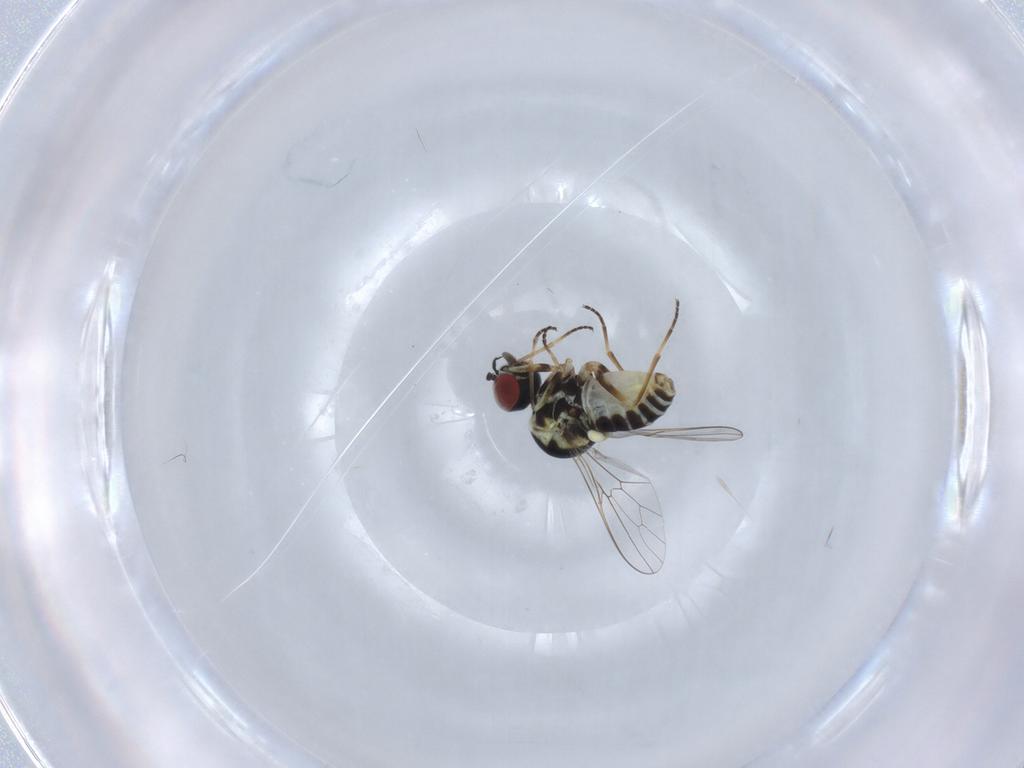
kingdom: Animalia
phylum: Arthropoda
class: Insecta
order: Diptera
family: Bombyliidae
